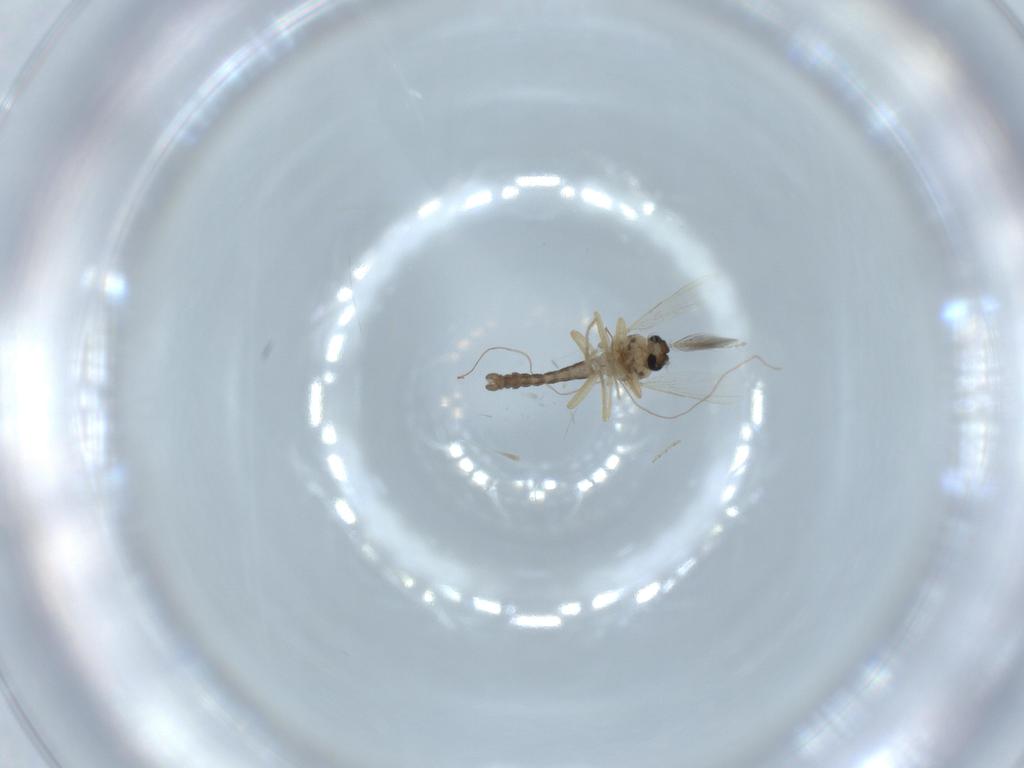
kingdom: Animalia
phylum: Arthropoda
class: Insecta
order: Diptera
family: Ceratopogonidae
